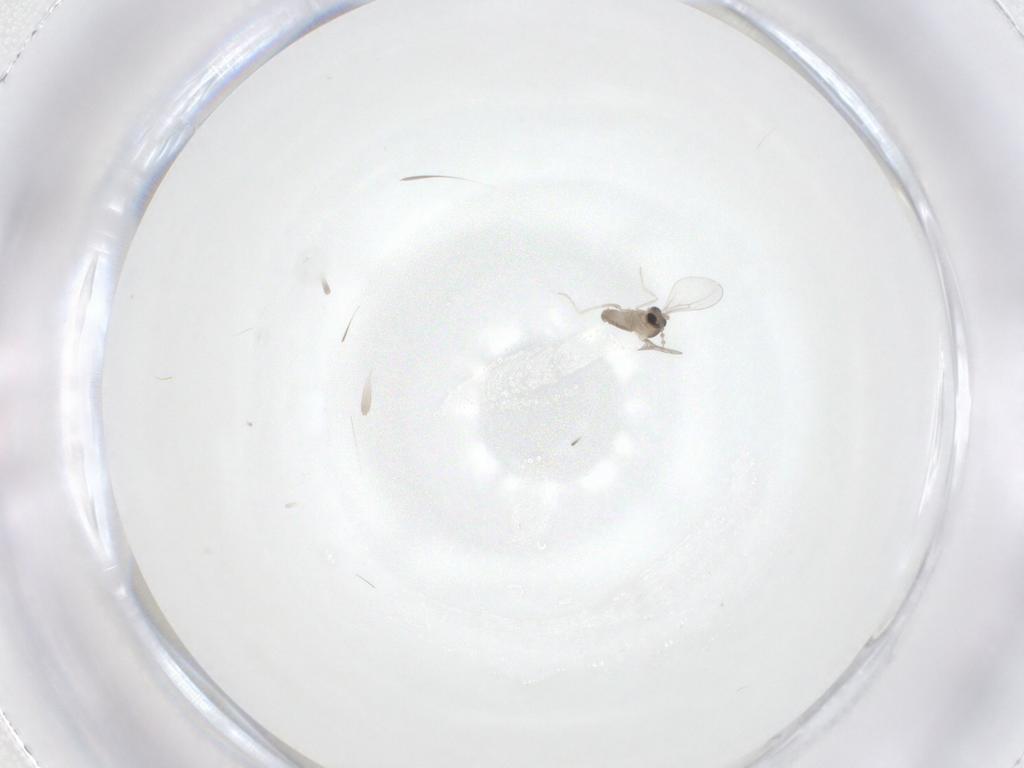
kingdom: Animalia
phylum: Arthropoda
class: Insecta
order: Diptera
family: Cecidomyiidae
